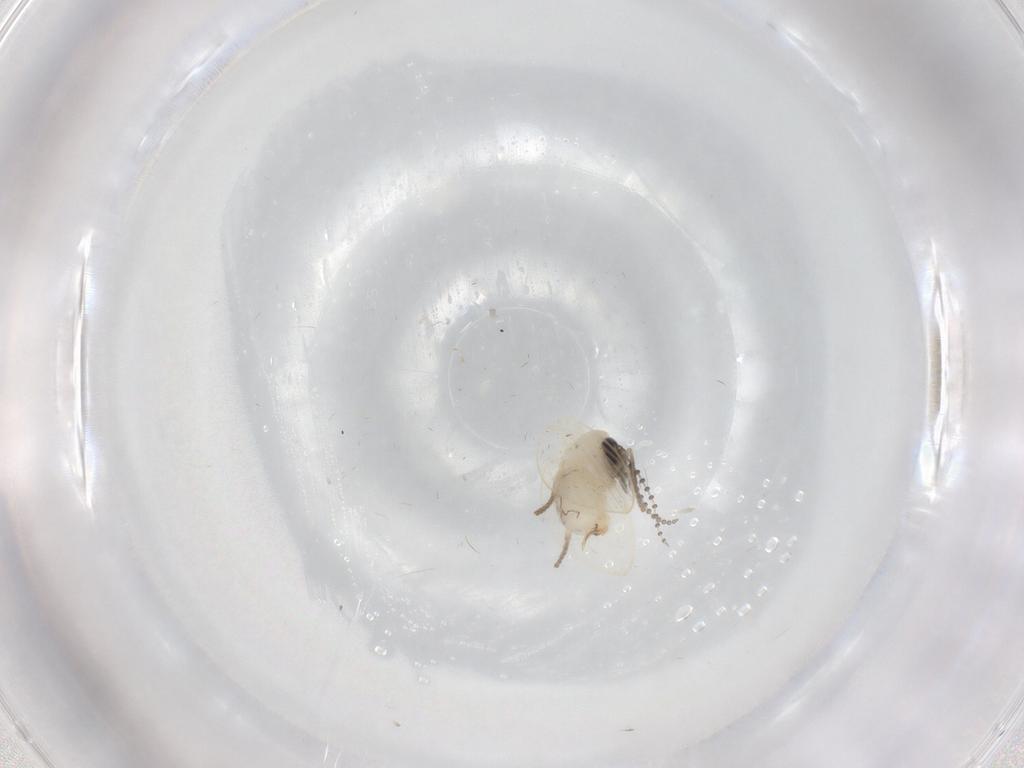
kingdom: Animalia
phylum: Arthropoda
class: Insecta
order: Diptera
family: Psychodidae
